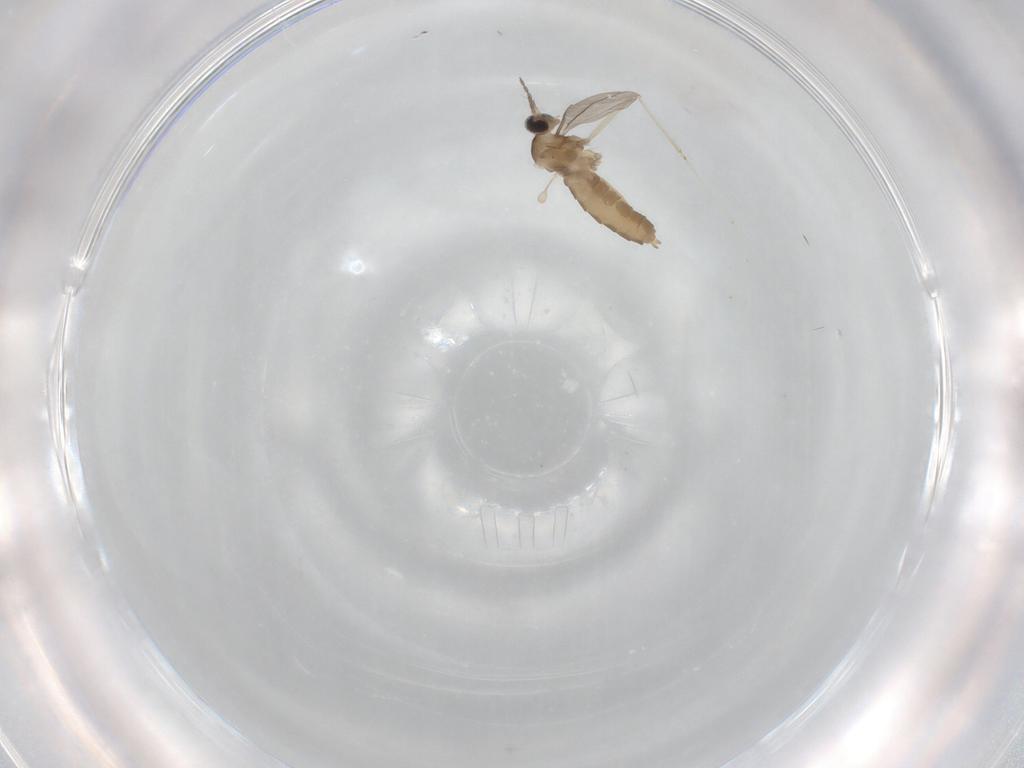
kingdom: Animalia
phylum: Arthropoda
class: Insecta
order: Diptera
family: Cecidomyiidae
